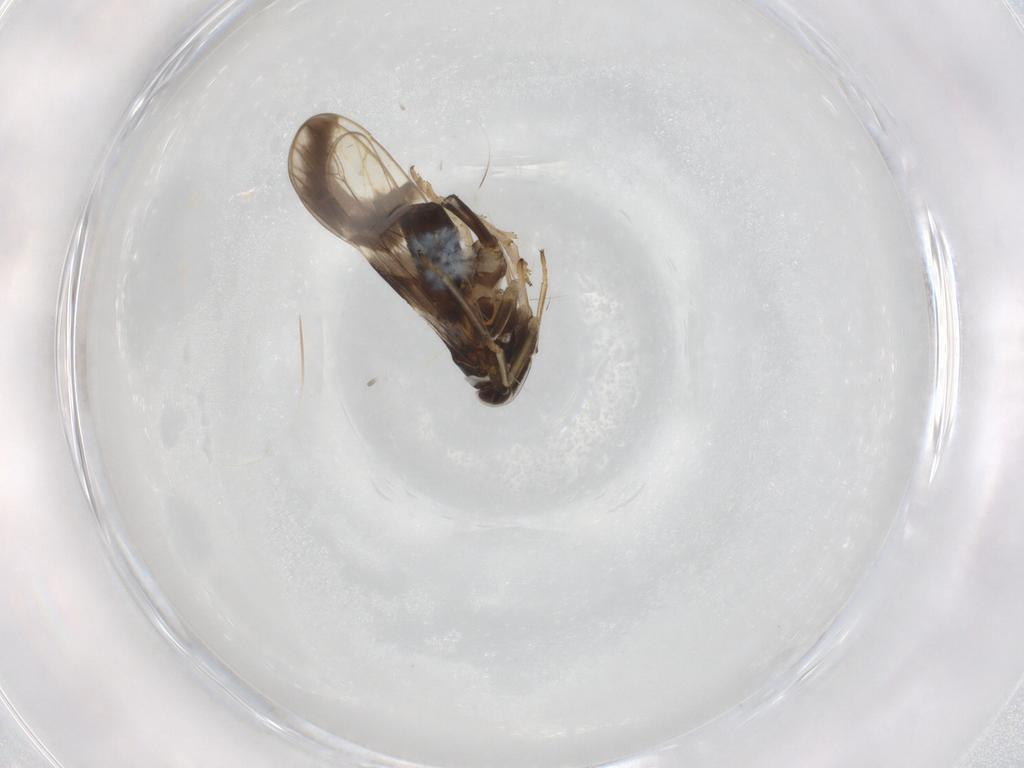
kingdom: Animalia
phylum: Arthropoda
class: Insecta
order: Hemiptera
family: Delphacidae
